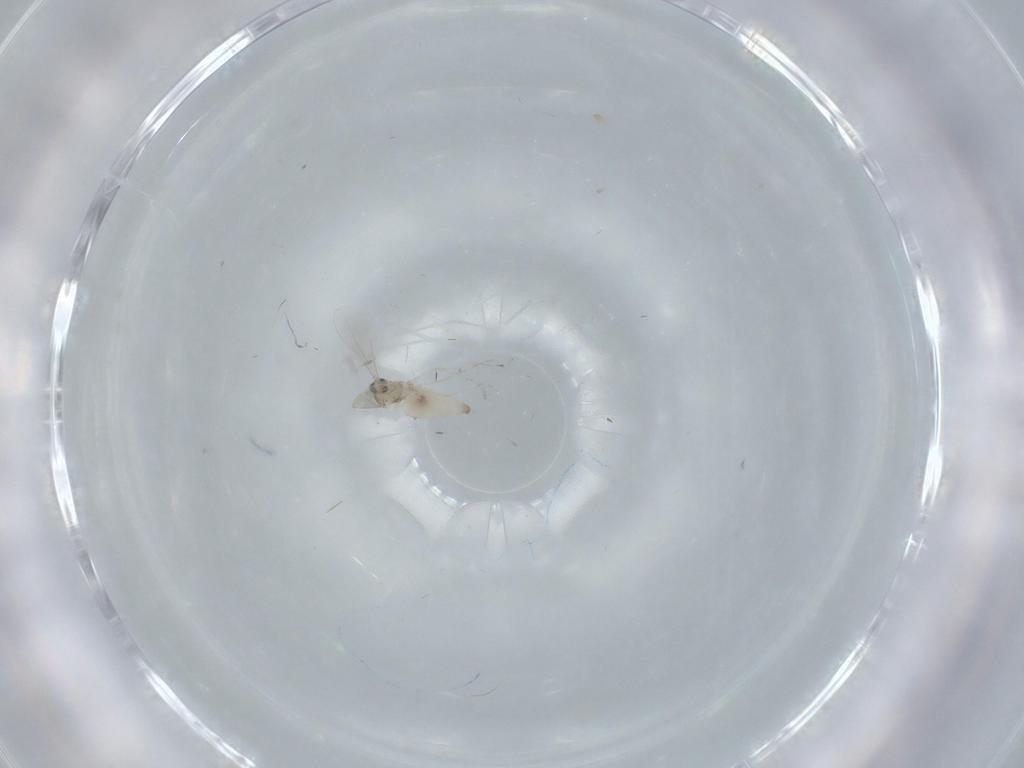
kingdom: Animalia
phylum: Arthropoda
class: Insecta
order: Diptera
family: Cecidomyiidae
